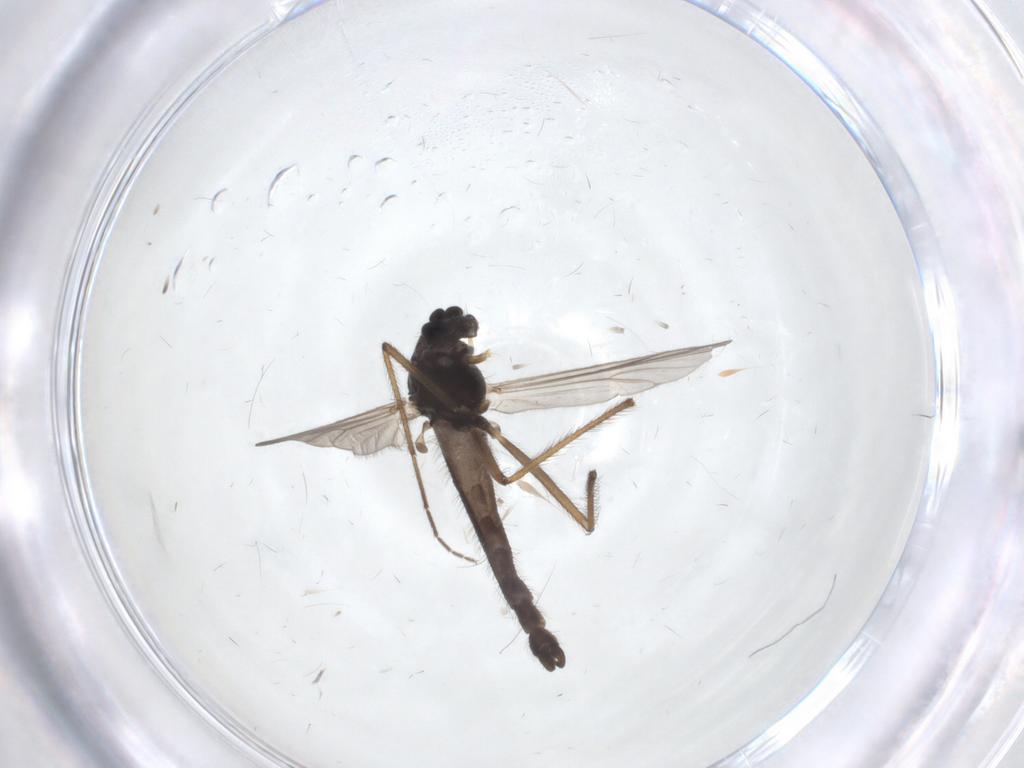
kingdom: Animalia
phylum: Arthropoda
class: Insecta
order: Diptera
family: Chironomidae
